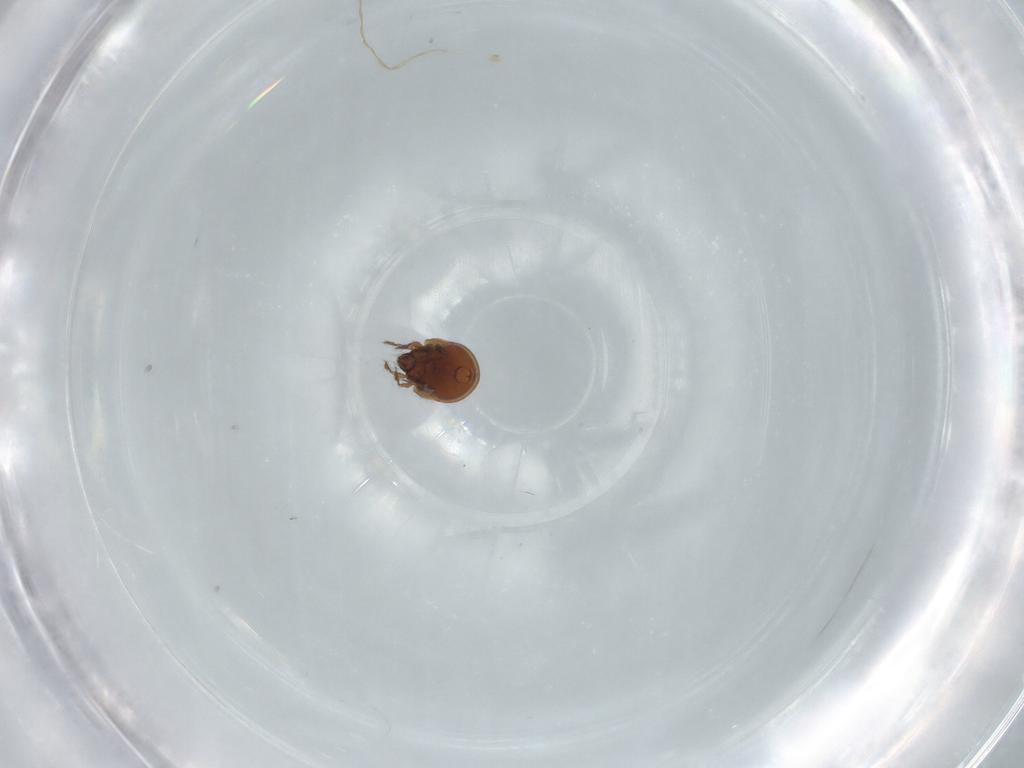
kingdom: Animalia
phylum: Arthropoda
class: Arachnida
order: Sarcoptiformes
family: Mochlozetidae
